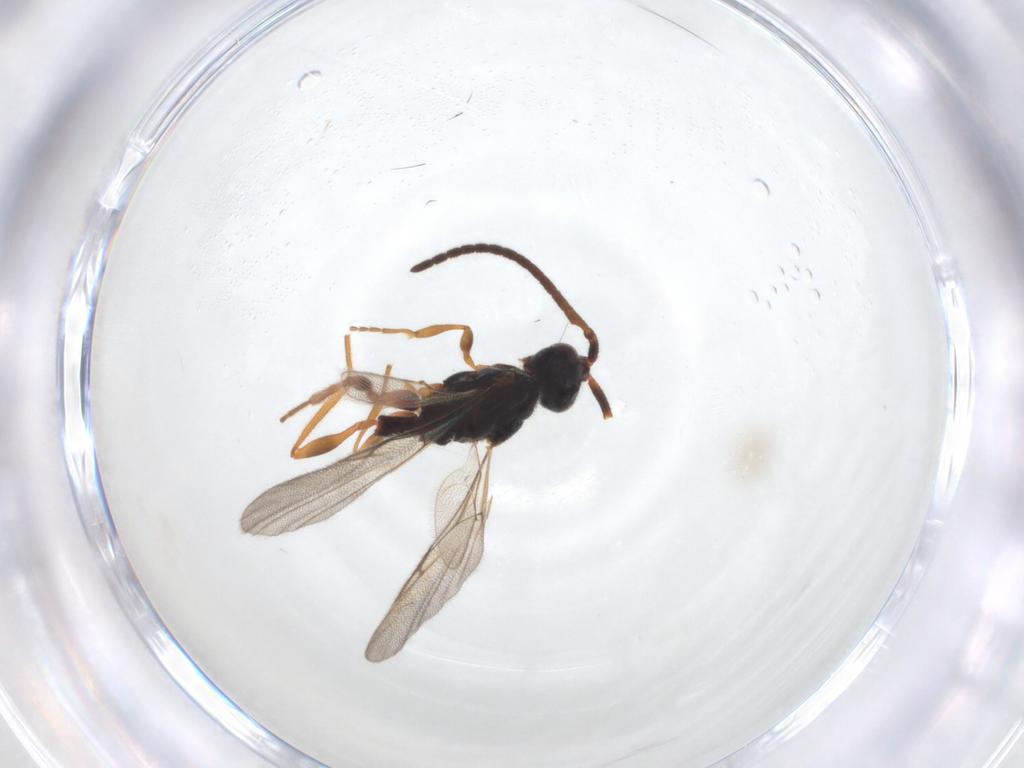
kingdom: Animalia
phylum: Arthropoda
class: Insecta
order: Hymenoptera
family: Diapriidae
